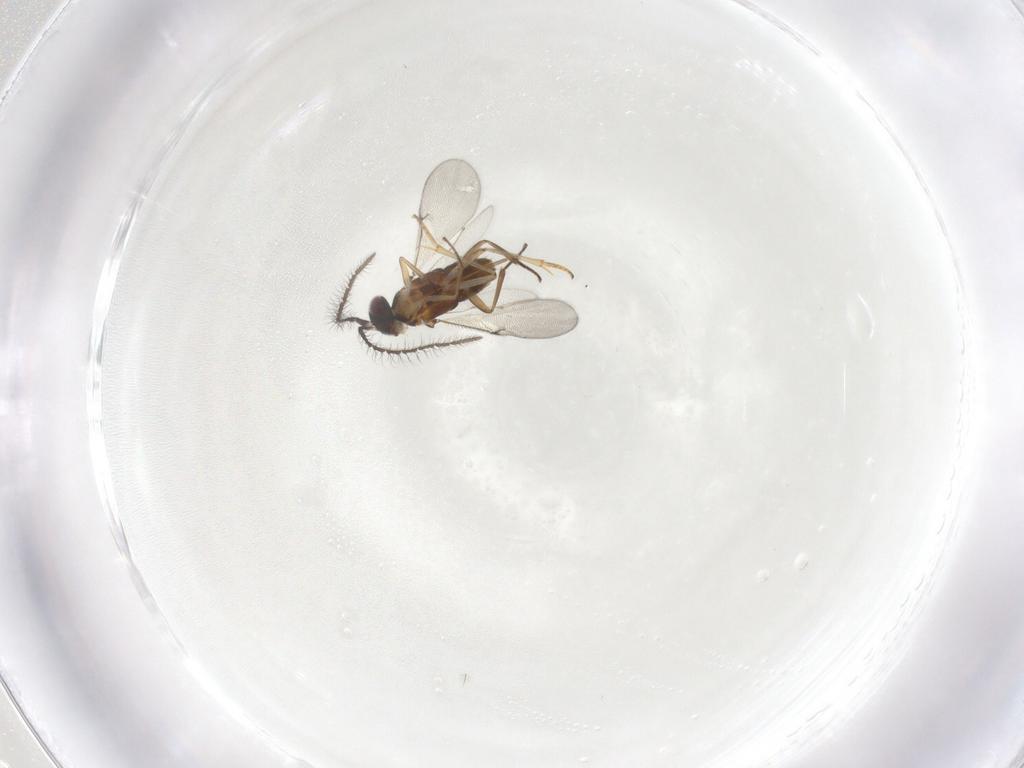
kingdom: Animalia
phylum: Arthropoda
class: Insecta
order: Hymenoptera
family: Encyrtidae
